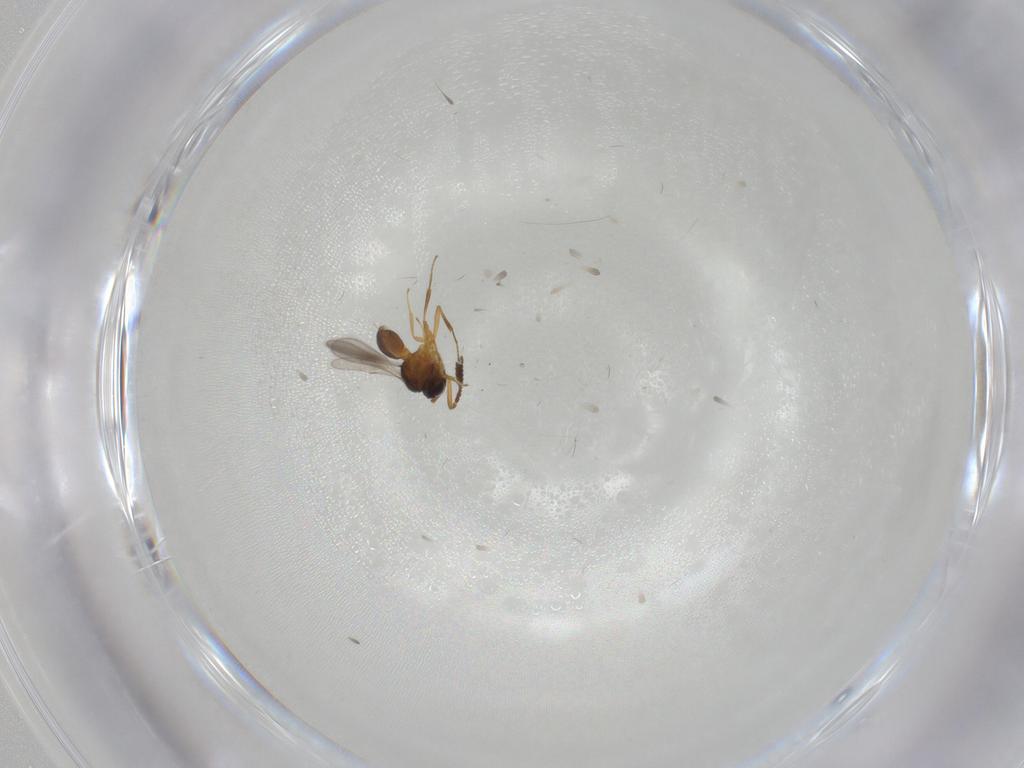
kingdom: Animalia
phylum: Arthropoda
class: Insecta
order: Hymenoptera
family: Scelionidae
